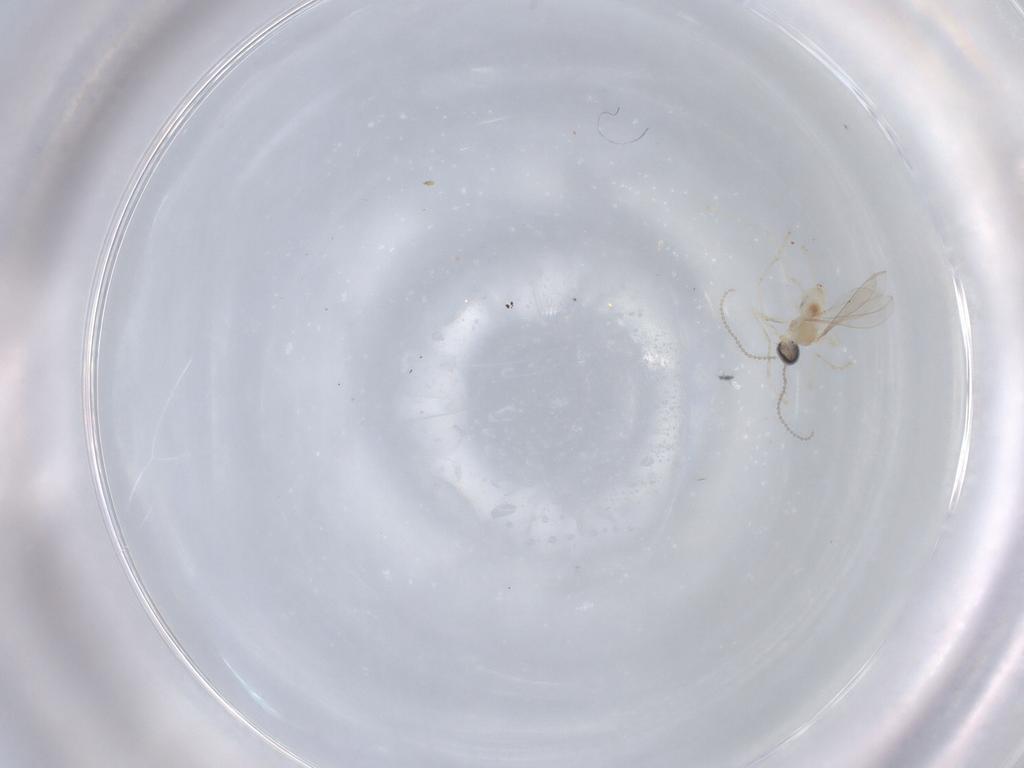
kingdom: Animalia
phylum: Arthropoda
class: Insecta
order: Diptera
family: Cecidomyiidae
